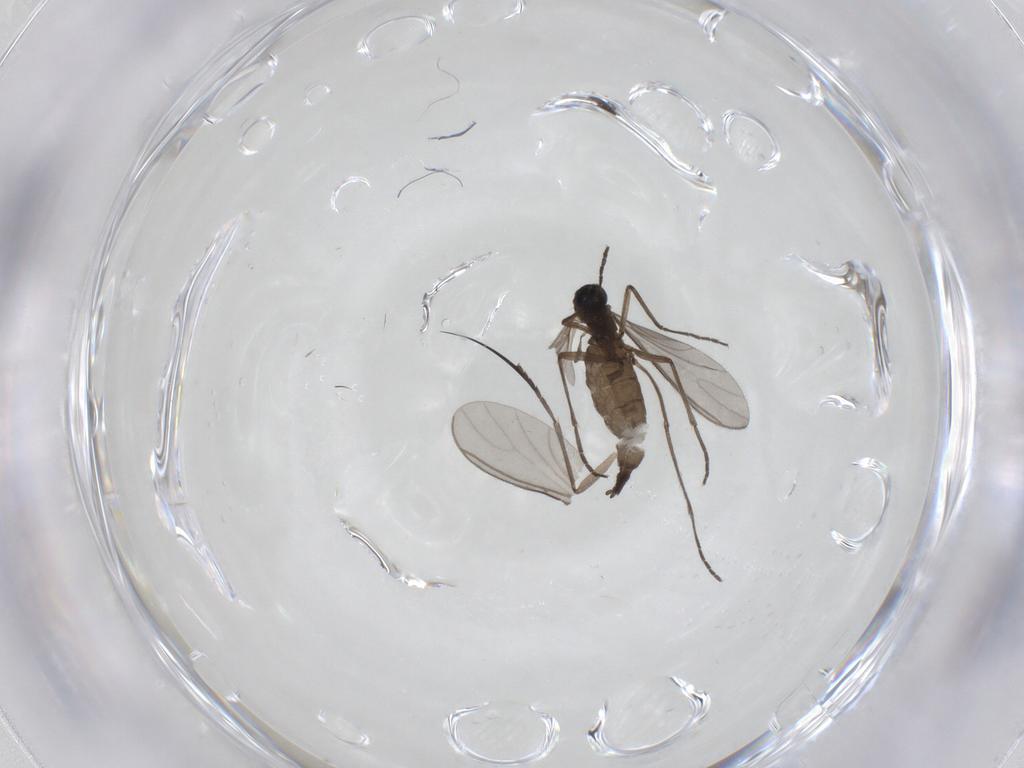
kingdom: Animalia
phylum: Arthropoda
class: Insecta
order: Diptera
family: Sciaridae
